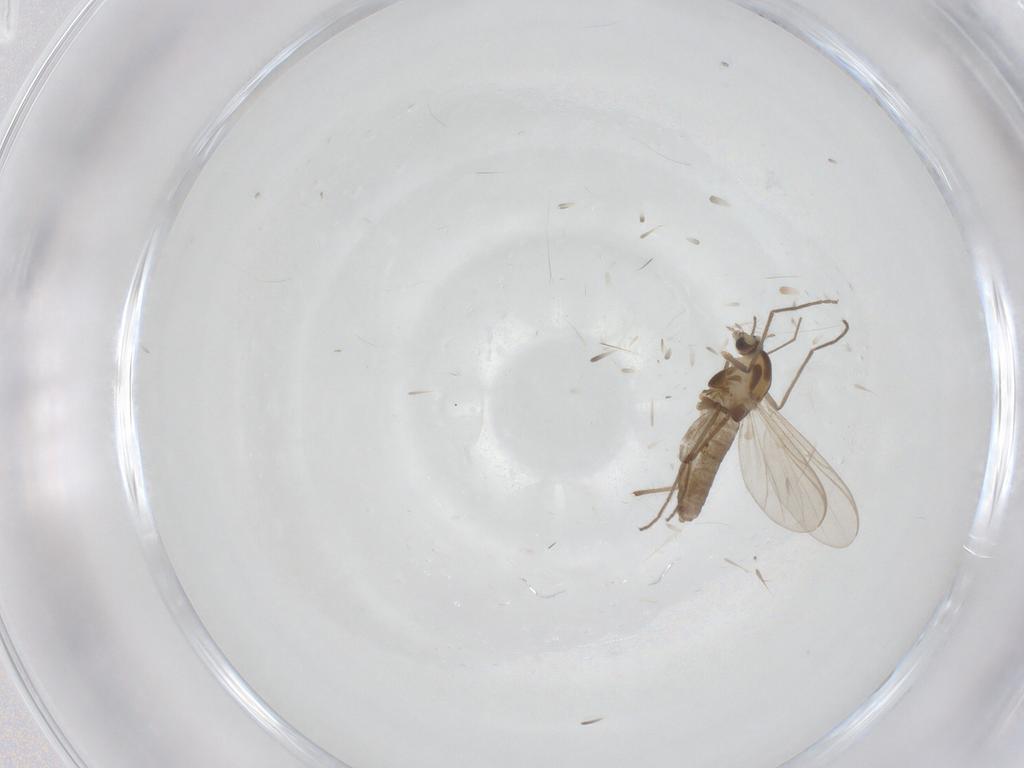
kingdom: Animalia
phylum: Arthropoda
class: Insecta
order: Diptera
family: Chironomidae
